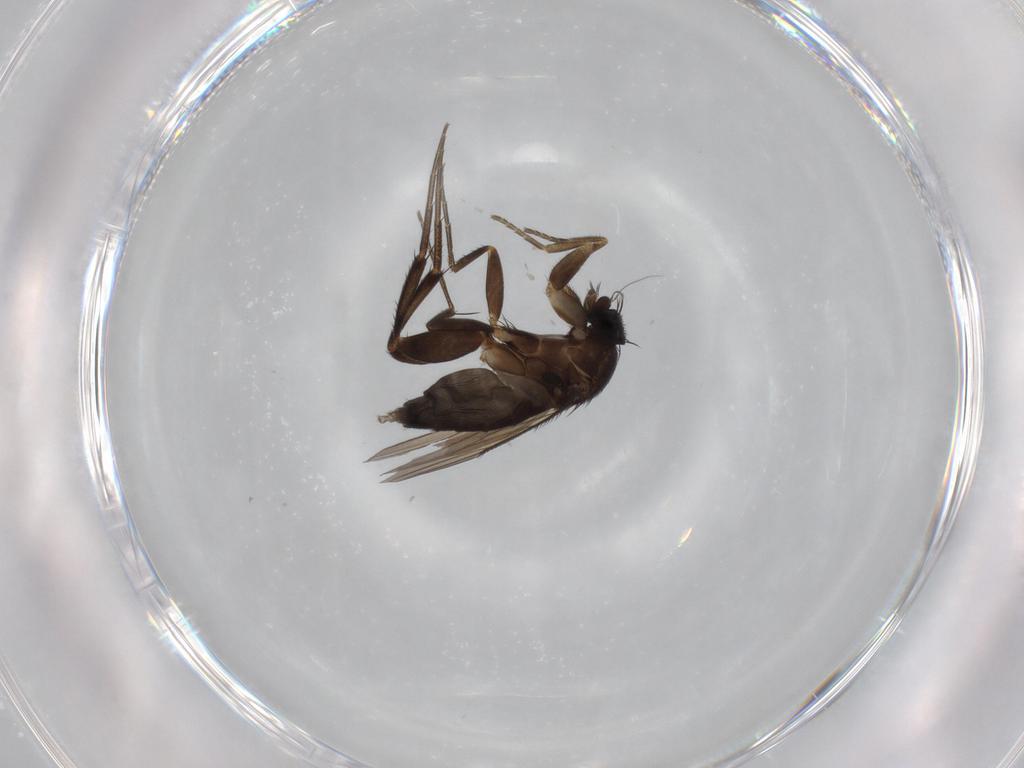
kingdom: Animalia
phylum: Arthropoda
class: Insecta
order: Diptera
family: Phoridae
